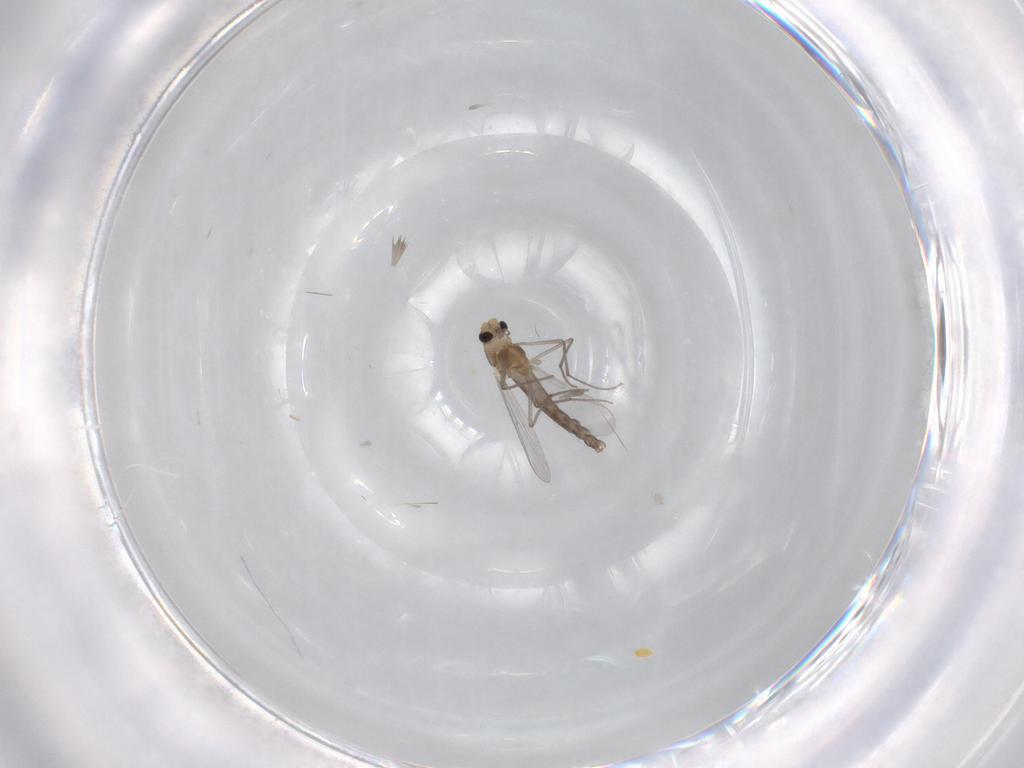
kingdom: Animalia
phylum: Arthropoda
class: Insecta
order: Diptera
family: Chironomidae
